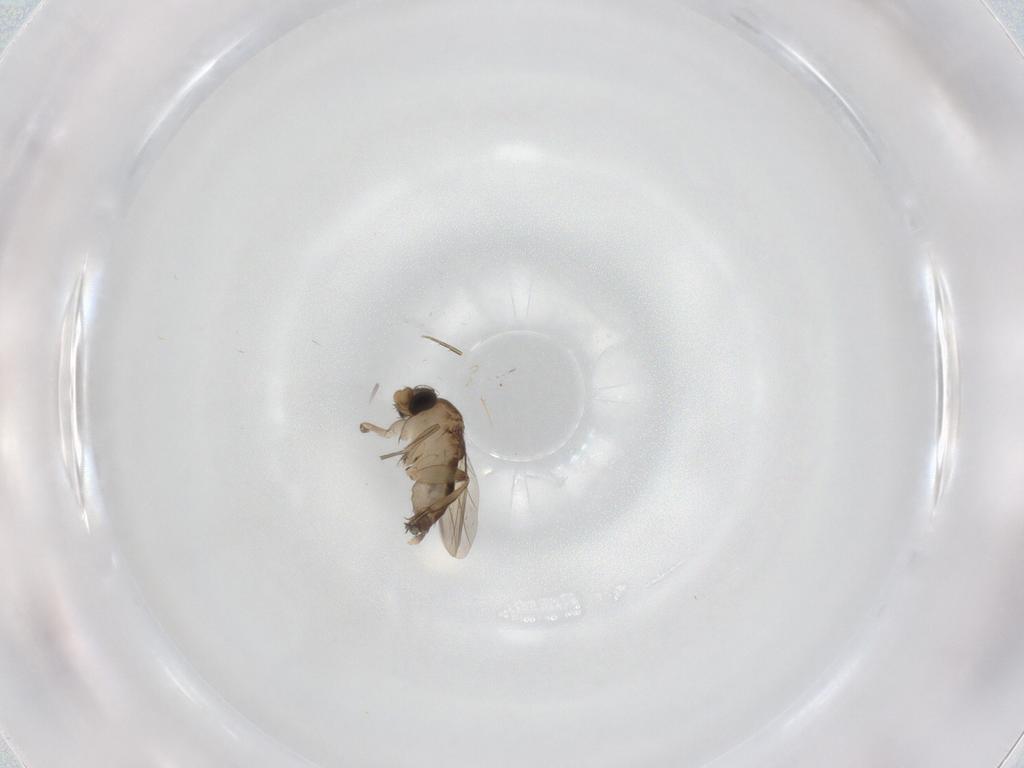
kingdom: Animalia
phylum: Arthropoda
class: Insecta
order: Diptera
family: Phoridae
